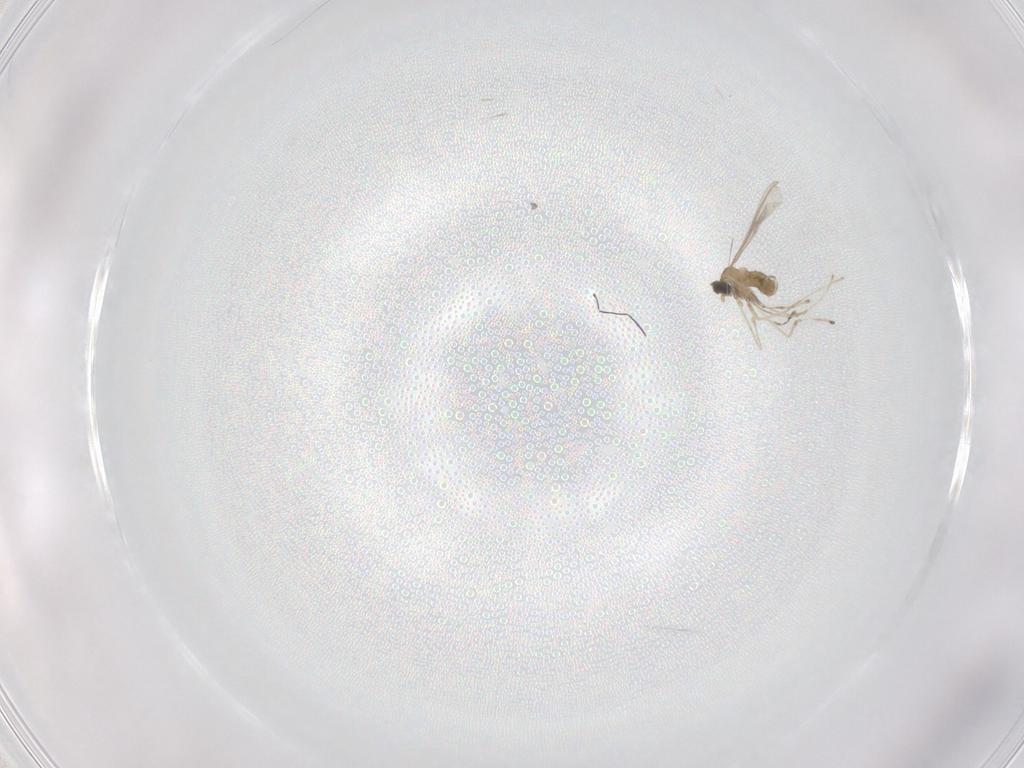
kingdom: Animalia
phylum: Arthropoda
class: Insecta
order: Diptera
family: Cecidomyiidae
